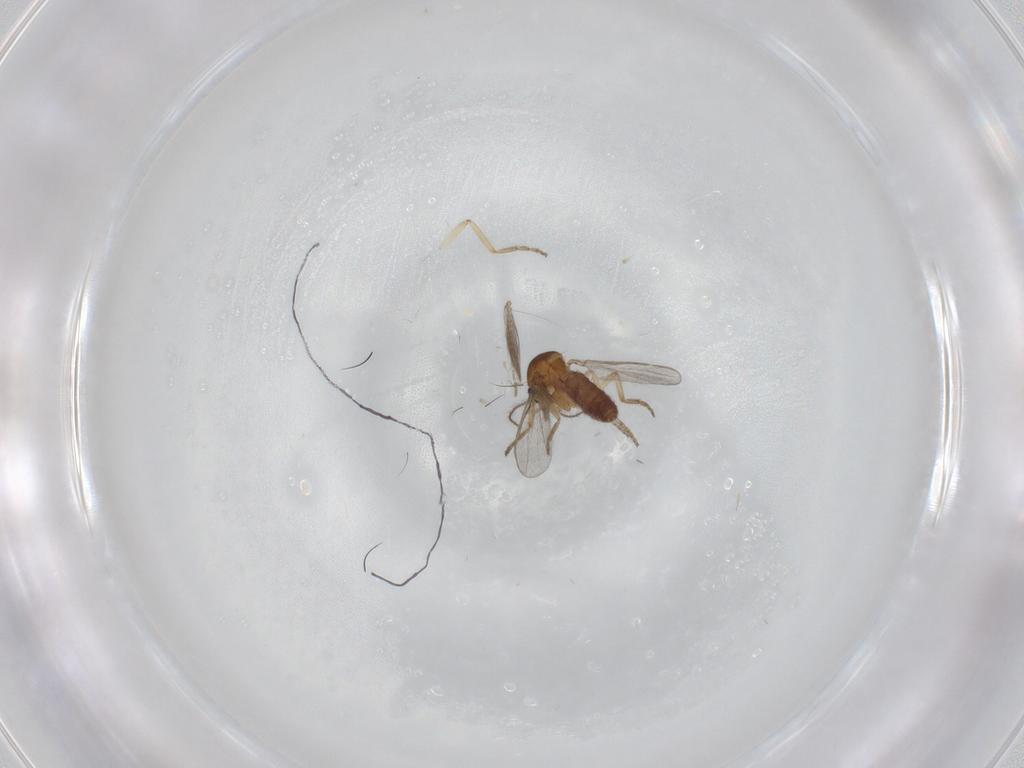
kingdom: Animalia
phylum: Arthropoda
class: Insecta
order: Diptera
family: Ceratopogonidae
